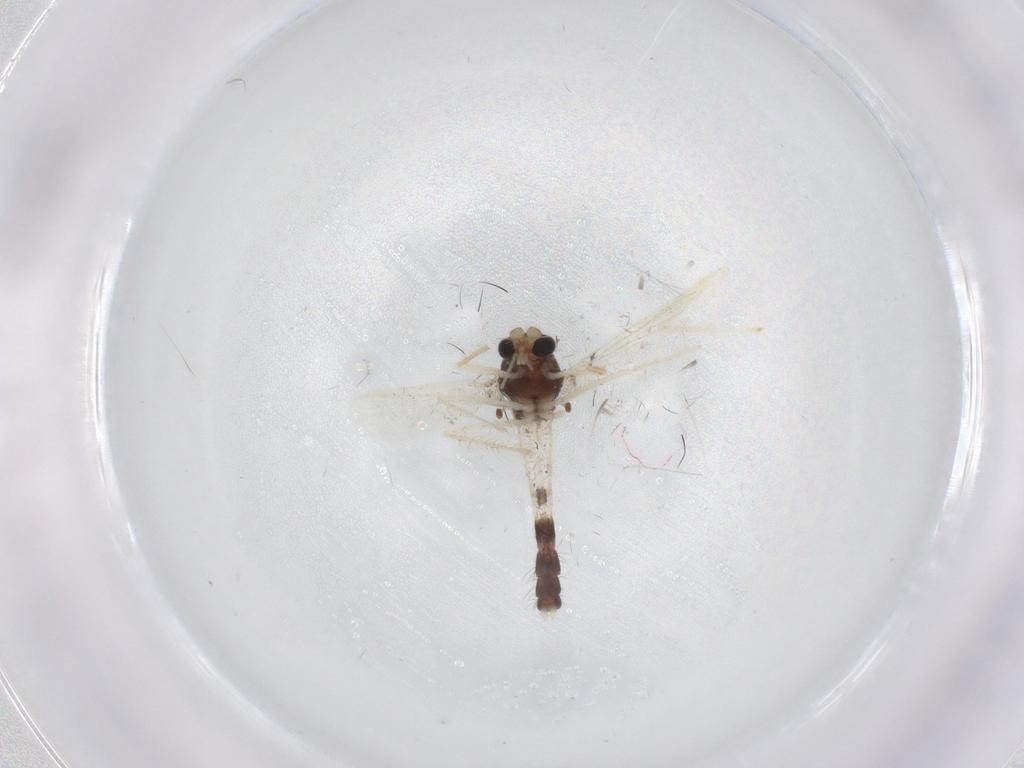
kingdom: Animalia
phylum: Arthropoda
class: Insecta
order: Diptera
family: Chironomidae
